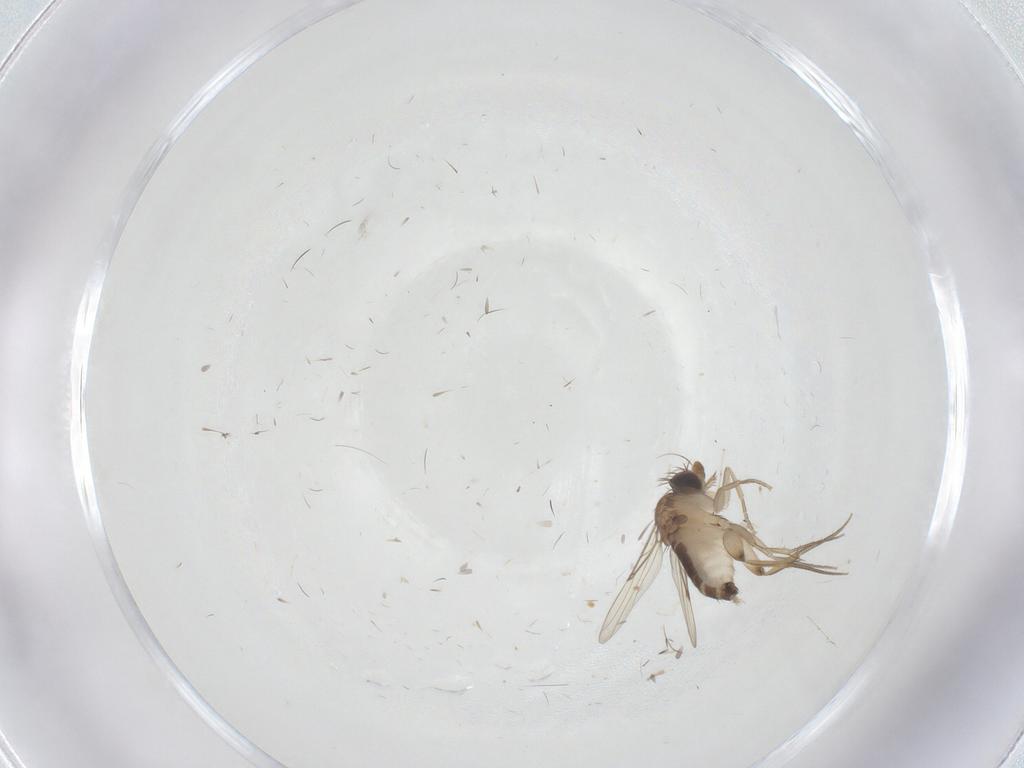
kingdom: Animalia
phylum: Arthropoda
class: Insecta
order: Diptera
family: Phoridae
